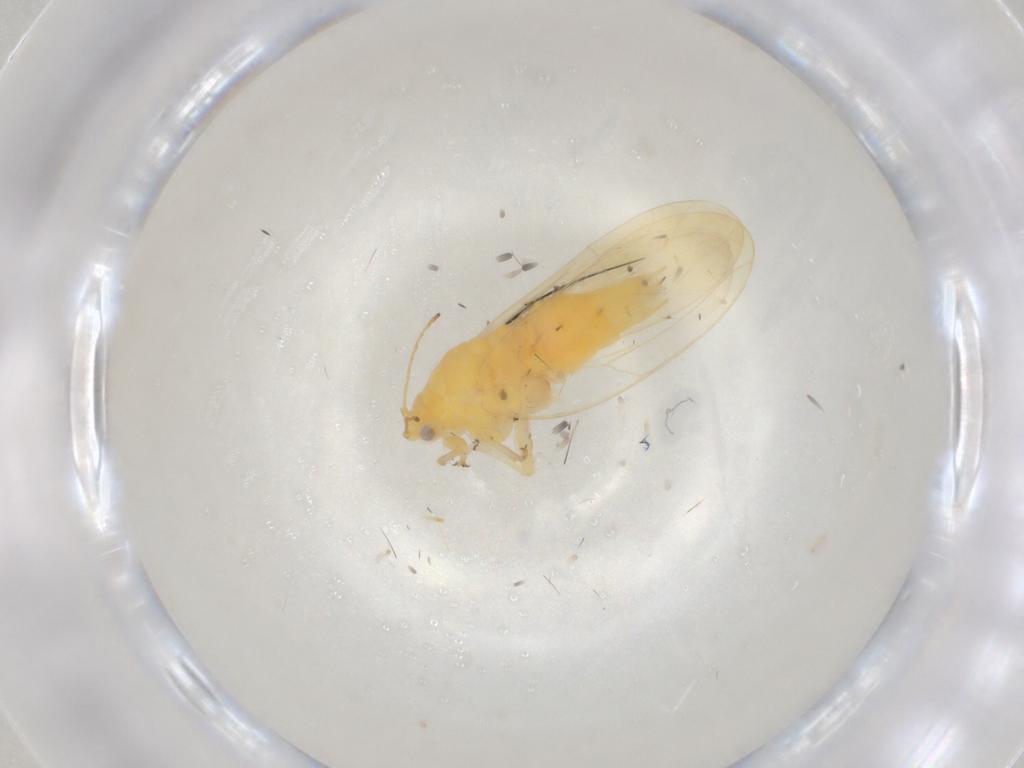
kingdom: Animalia
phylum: Arthropoda
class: Insecta
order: Hemiptera
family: Aphalaridae
